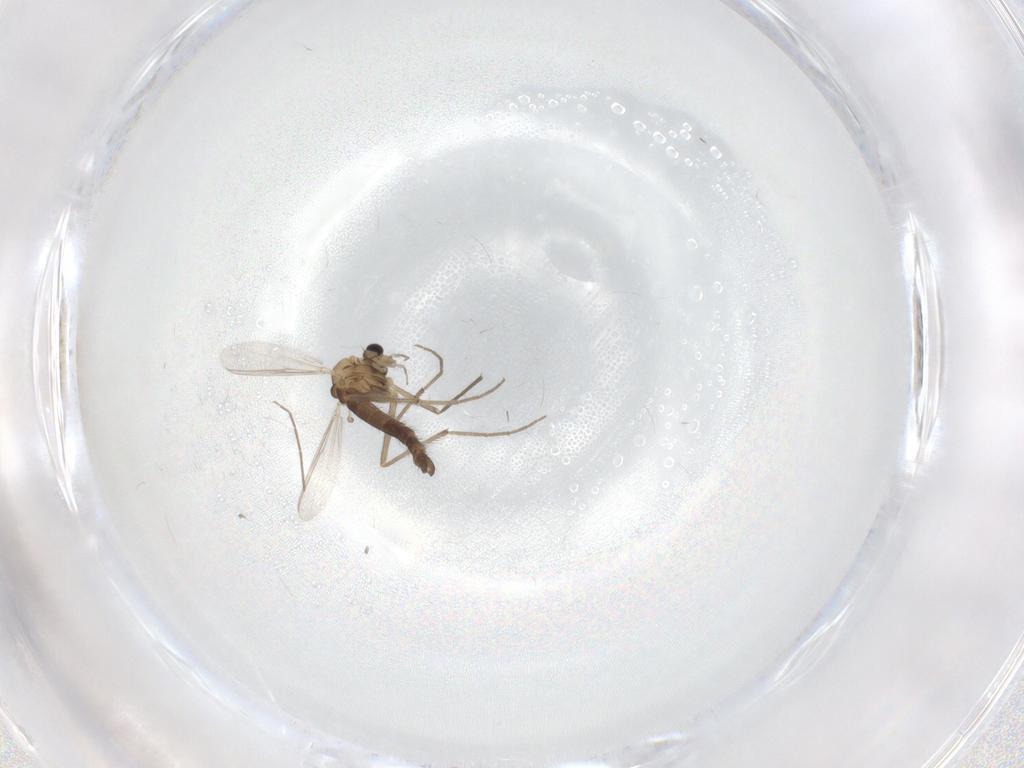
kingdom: Animalia
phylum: Arthropoda
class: Insecta
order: Diptera
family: Chironomidae
